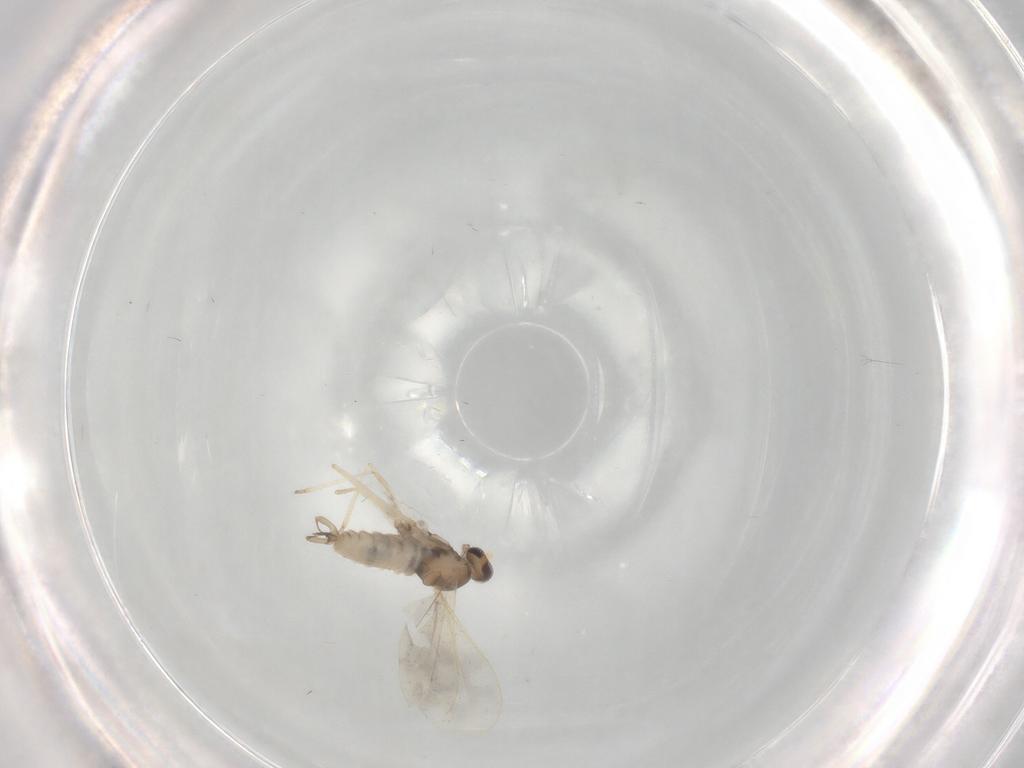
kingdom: Animalia
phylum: Arthropoda
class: Insecta
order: Diptera
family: Cecidomyiidae
